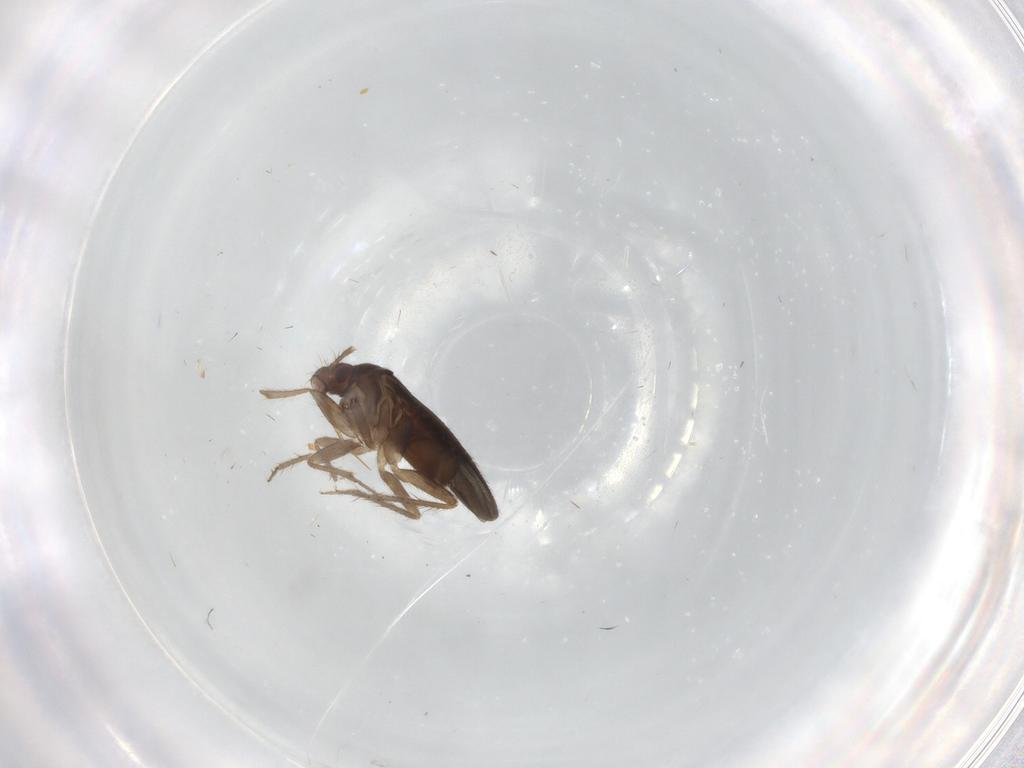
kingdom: Animalia
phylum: Arthropoda
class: Insecta
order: Hemiptera
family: Ceratocombidae
